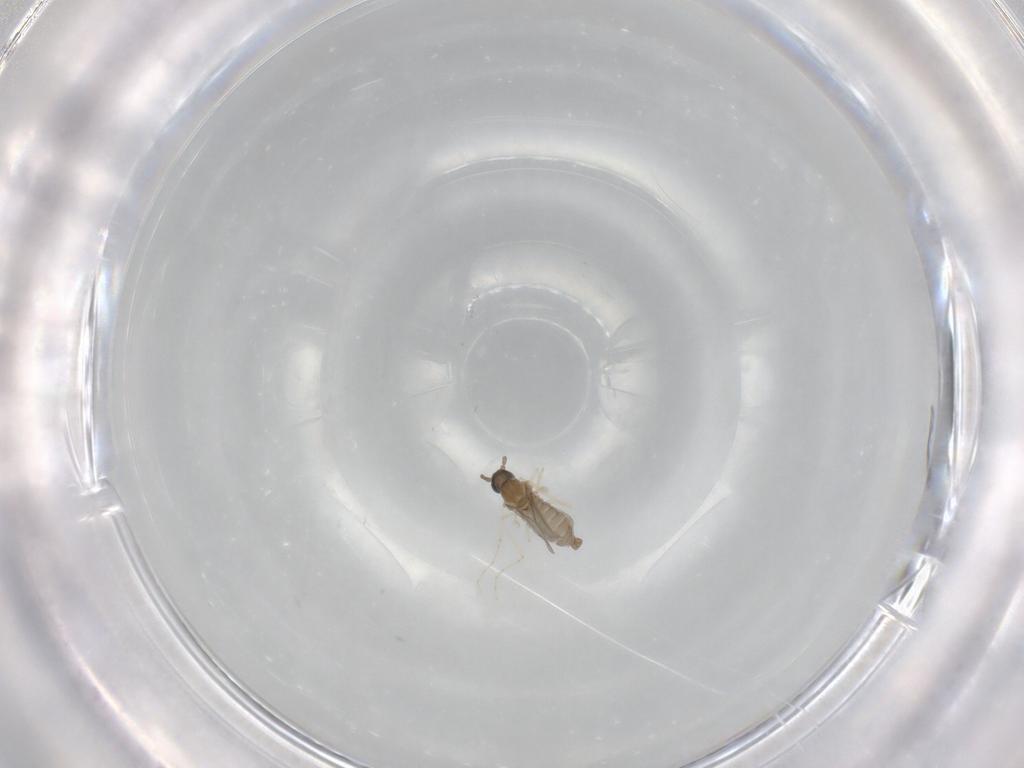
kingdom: Animalia
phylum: Arthropoda
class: Insecta
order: Diptera
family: Cecidomyiidae
